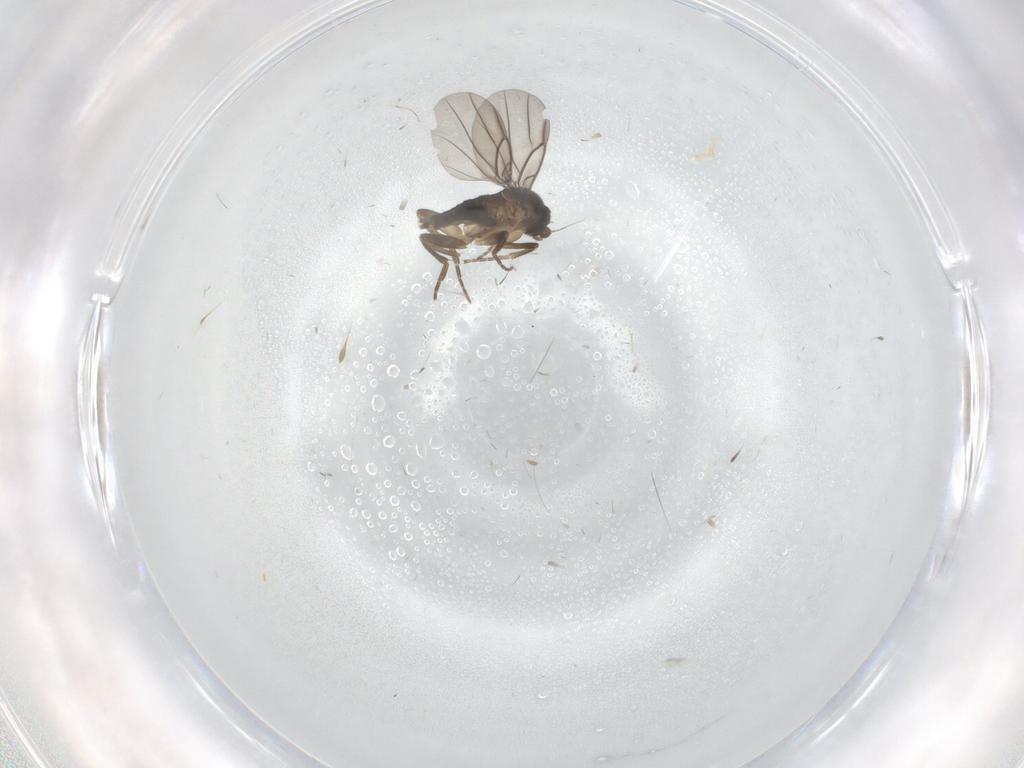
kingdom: Animalia
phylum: Arthropoda
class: Insecta
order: Diptera
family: Phoridae
